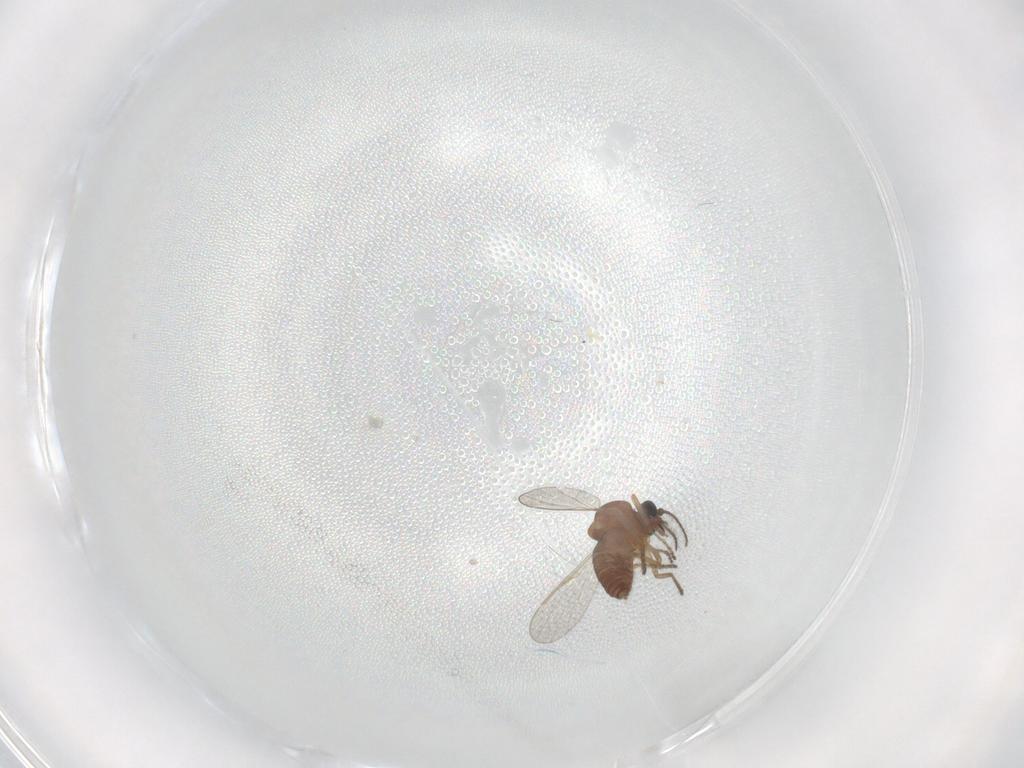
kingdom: Animalia
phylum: Arthropoda
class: Insecta
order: Diptera
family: Ceratopogonidae
